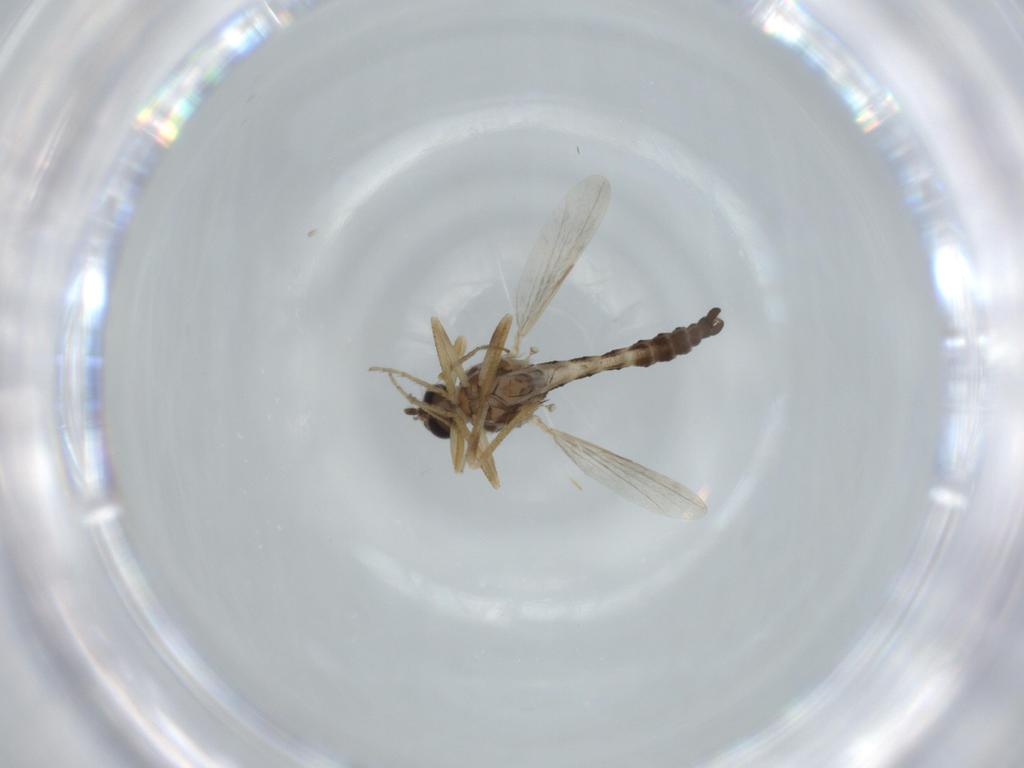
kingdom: Animalia
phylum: Arthropoda
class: Insecta
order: Diptera
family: Ceratopogonidae
